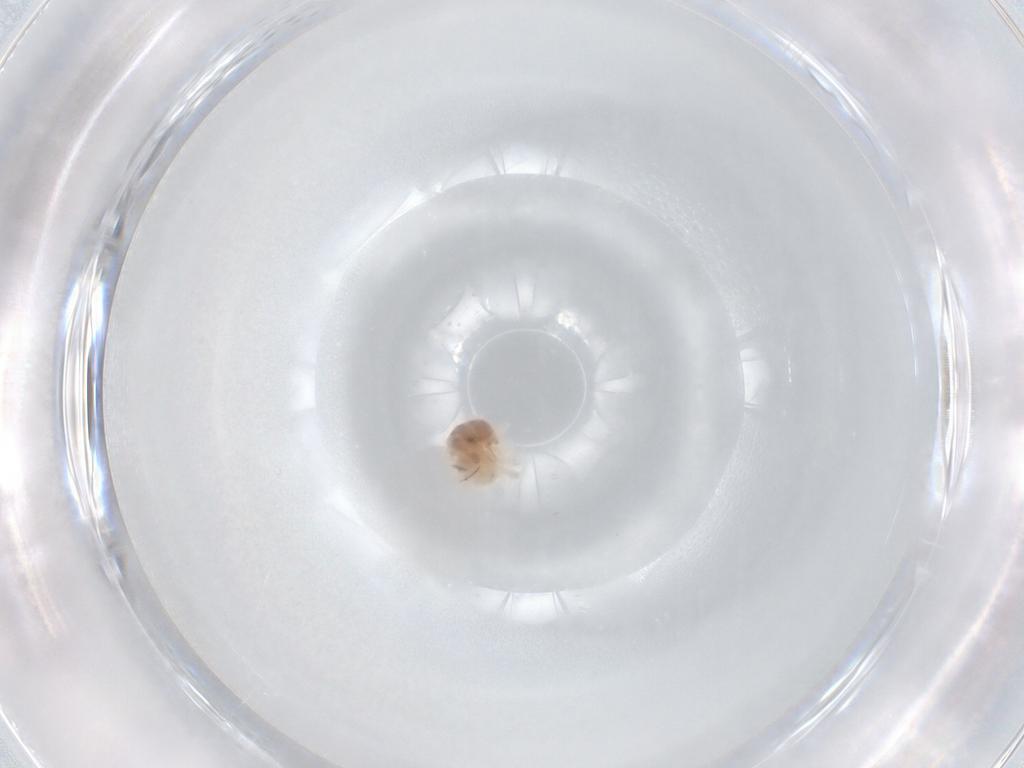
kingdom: Animalia
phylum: Arthropoda
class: Arachnida
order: Trombidiformes
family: Anystidae
